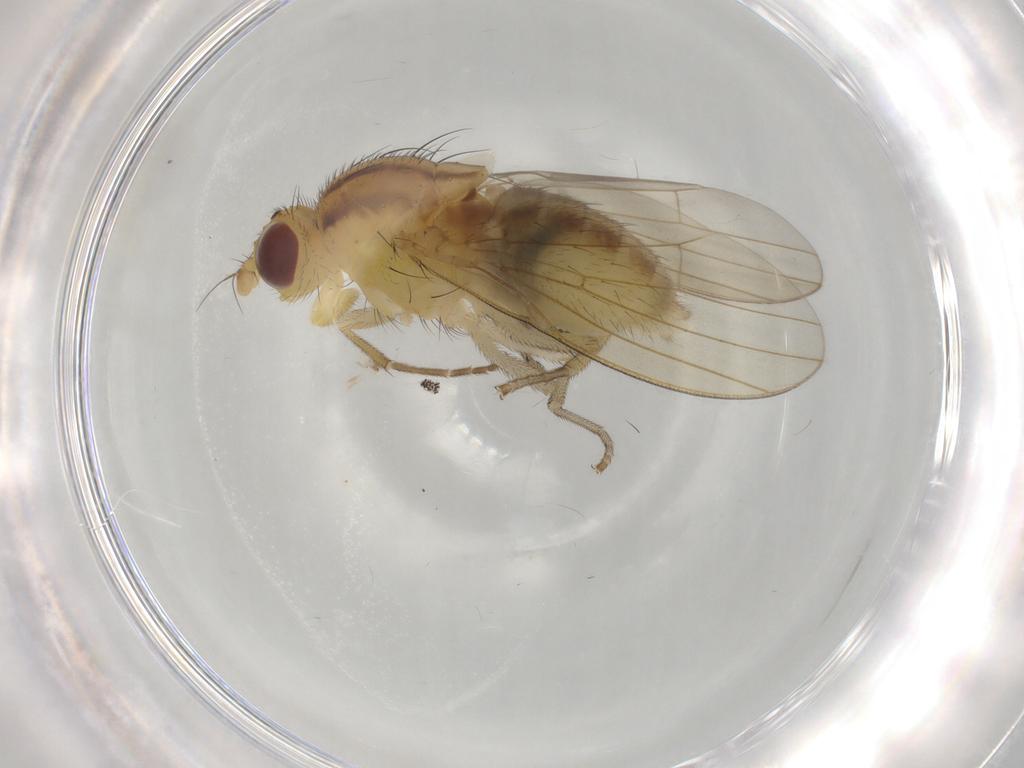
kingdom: Animalia
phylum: Arthropoda
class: Insecta
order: Diptera
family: Ceratopogonidae
